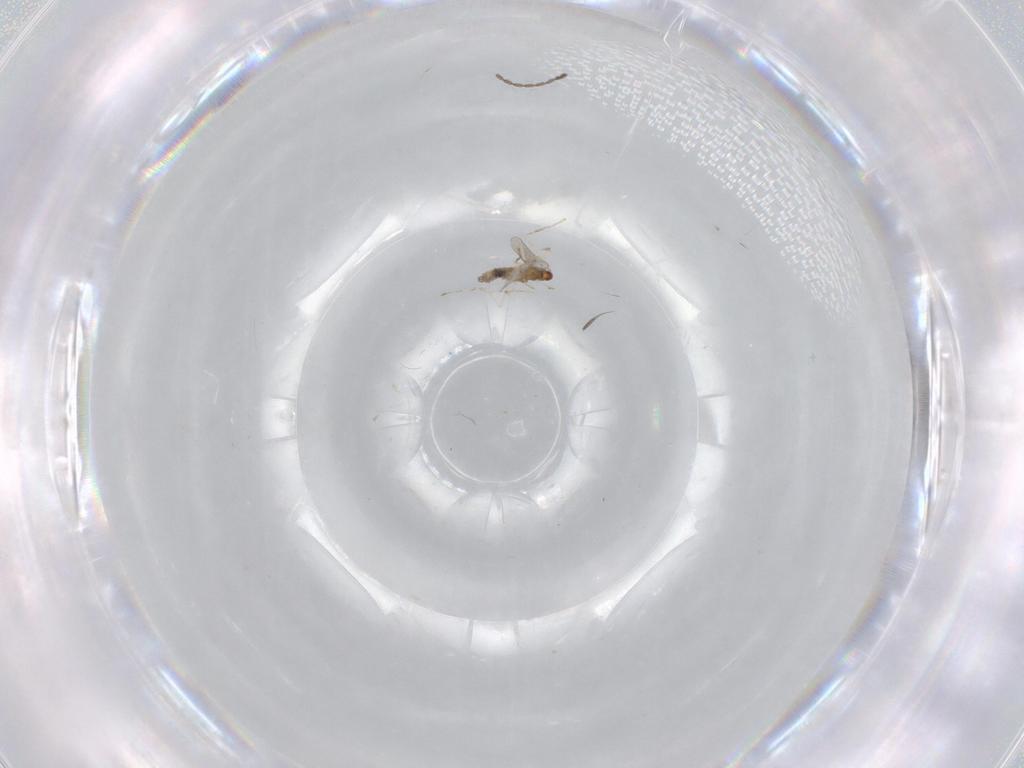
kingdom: Animalia
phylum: Arthropoda
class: Insecta
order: Diptera
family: Cecidomyiidae
